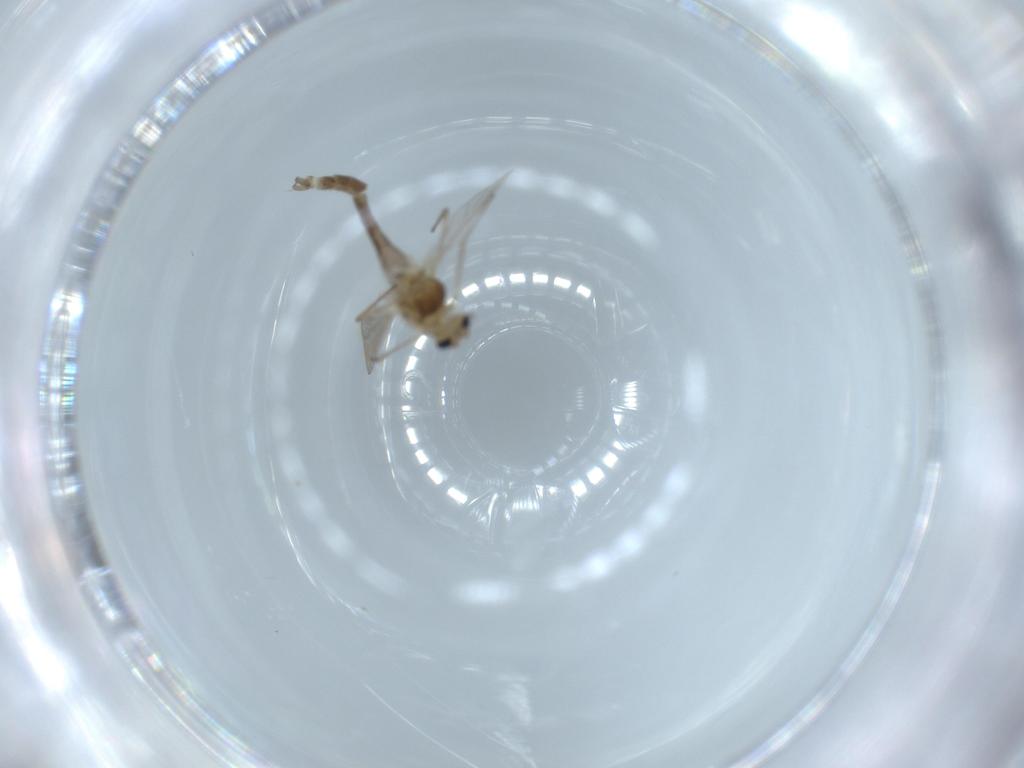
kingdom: Animalia
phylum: Arthropoda
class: Insecta
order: Diptera
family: Chironomidae
